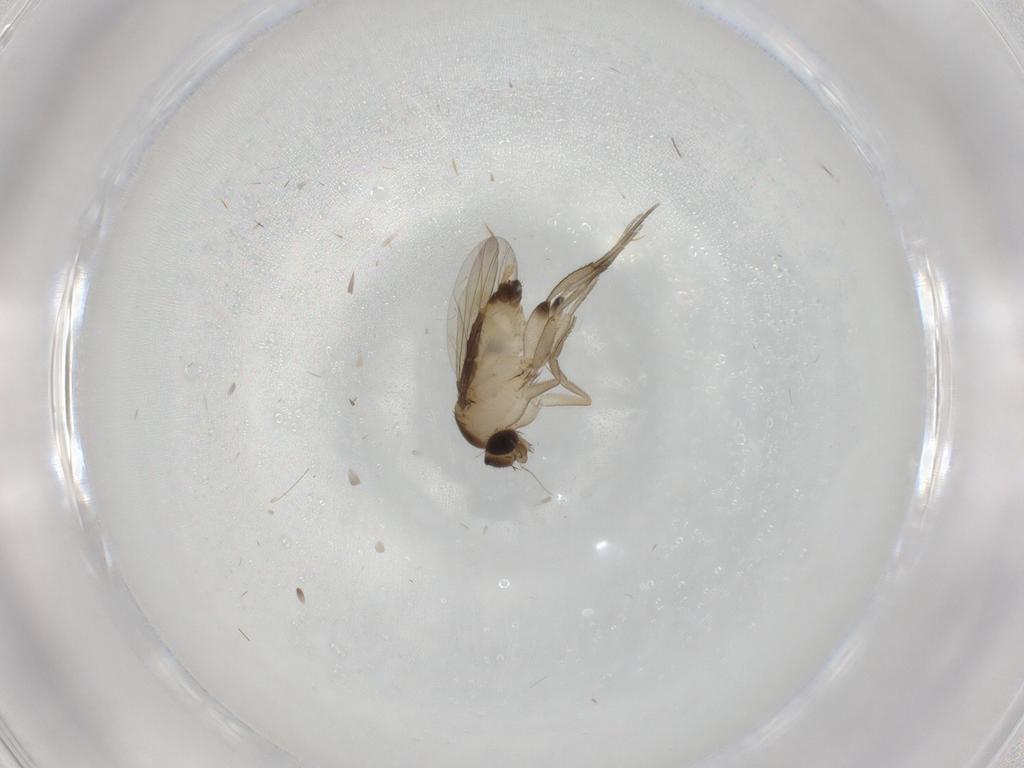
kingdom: Animalia
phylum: Arthropoda
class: Insecta
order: Diptera
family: Phoridae
